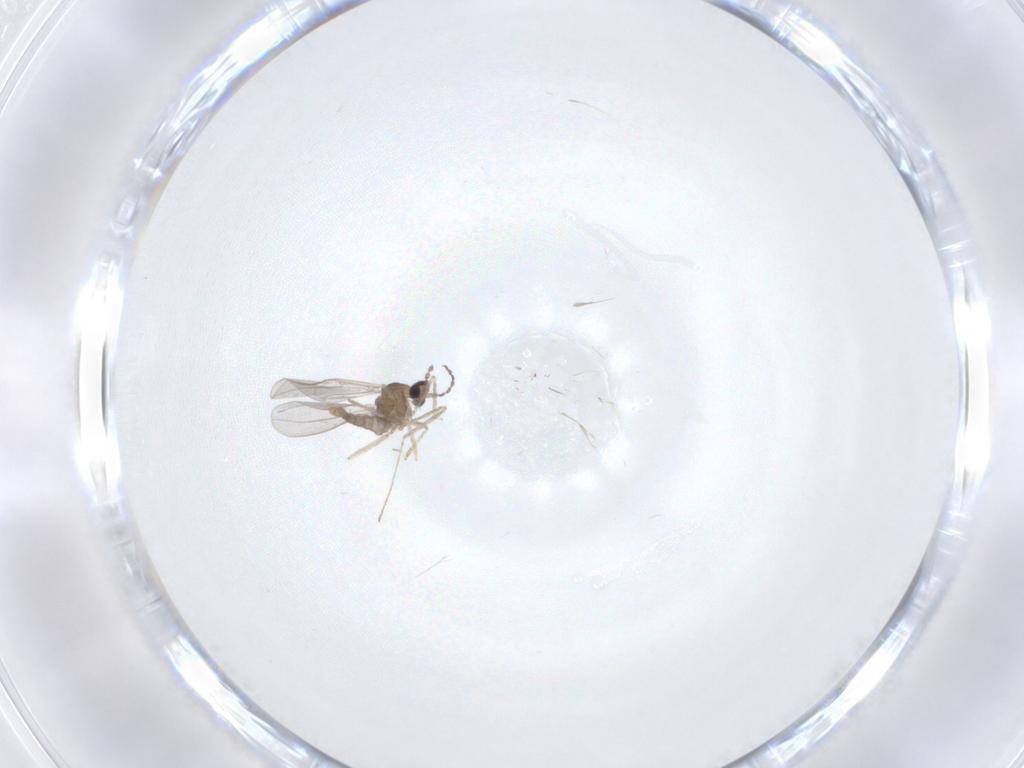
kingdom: Animalia
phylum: Arthropoda
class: Insecta
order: Diptera
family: Cecidomyiidae
